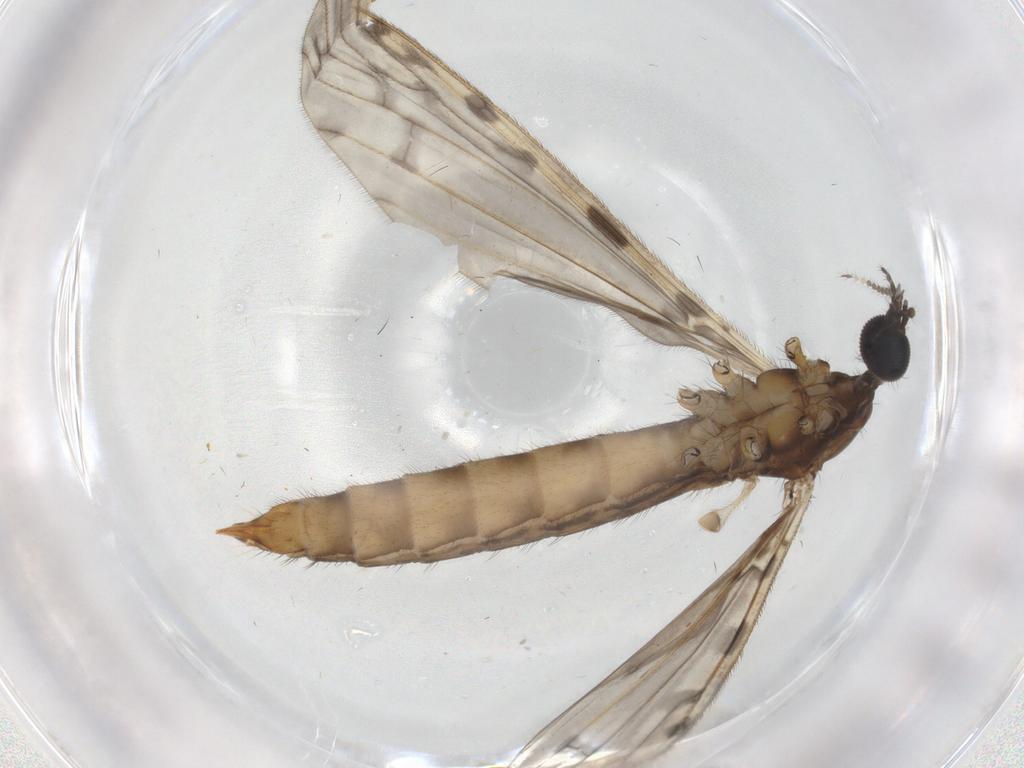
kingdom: Animalia
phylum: Arthropoda
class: Insecta
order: Diptera
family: Limoniidae
